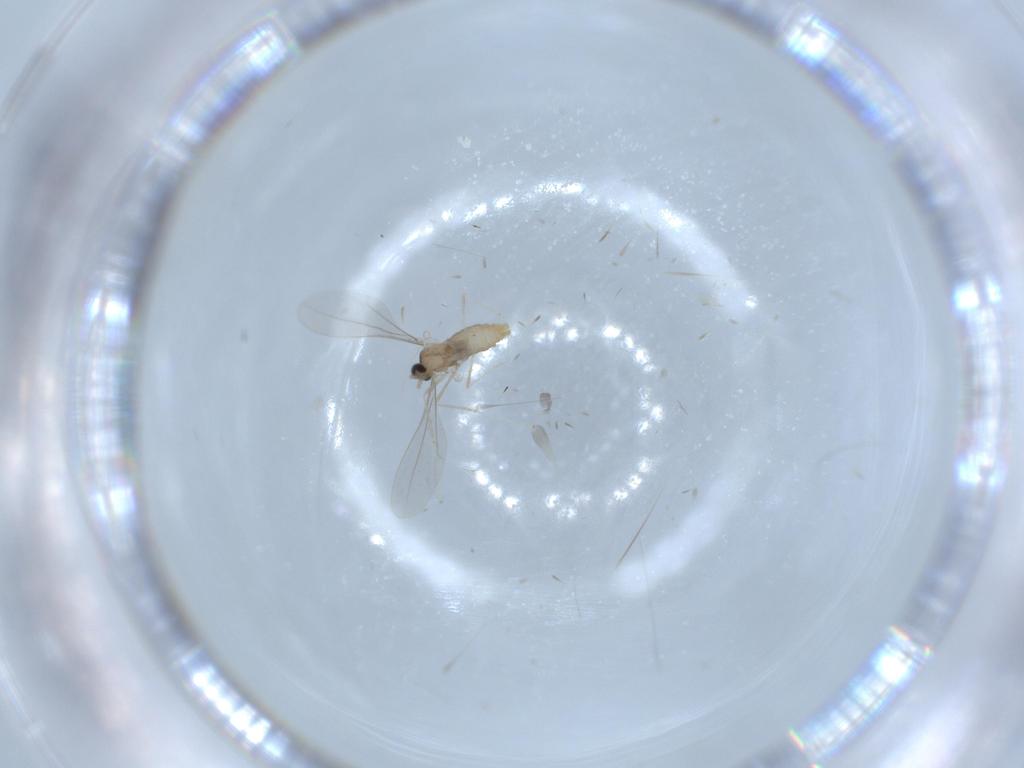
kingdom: Animalia
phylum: Arthropoda
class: Insecta
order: Diptera
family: Cecidomyiidae
